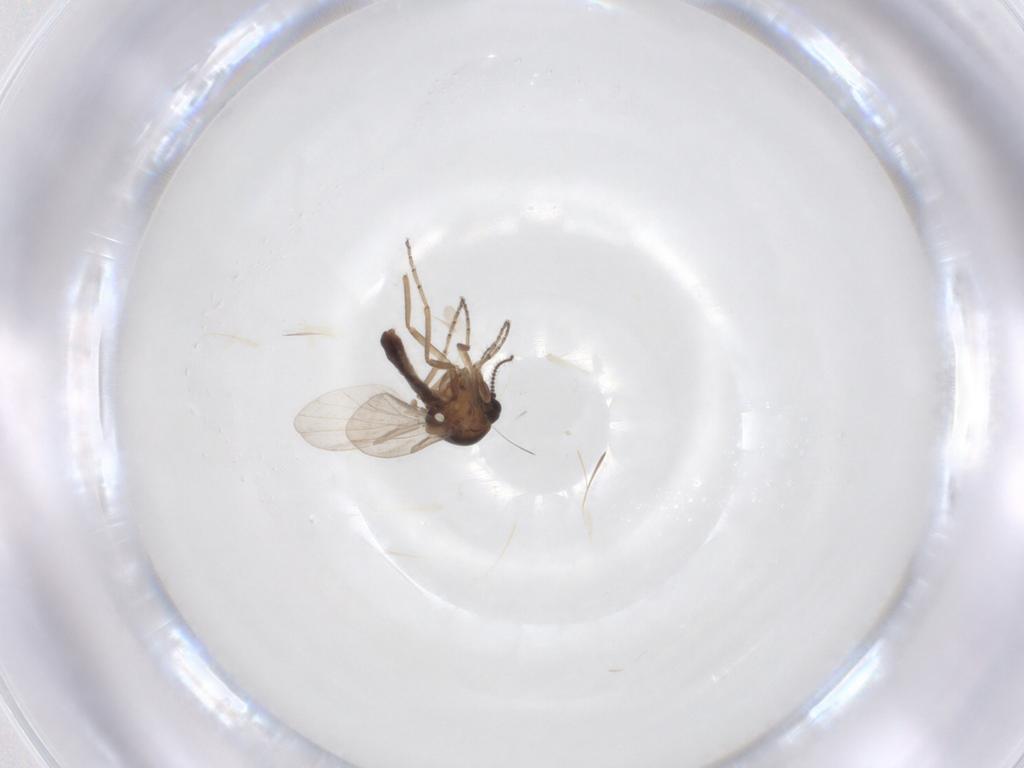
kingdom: Animalia
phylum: Arthropoda
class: Insecta
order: Diptera
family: Ceratopogonidae
